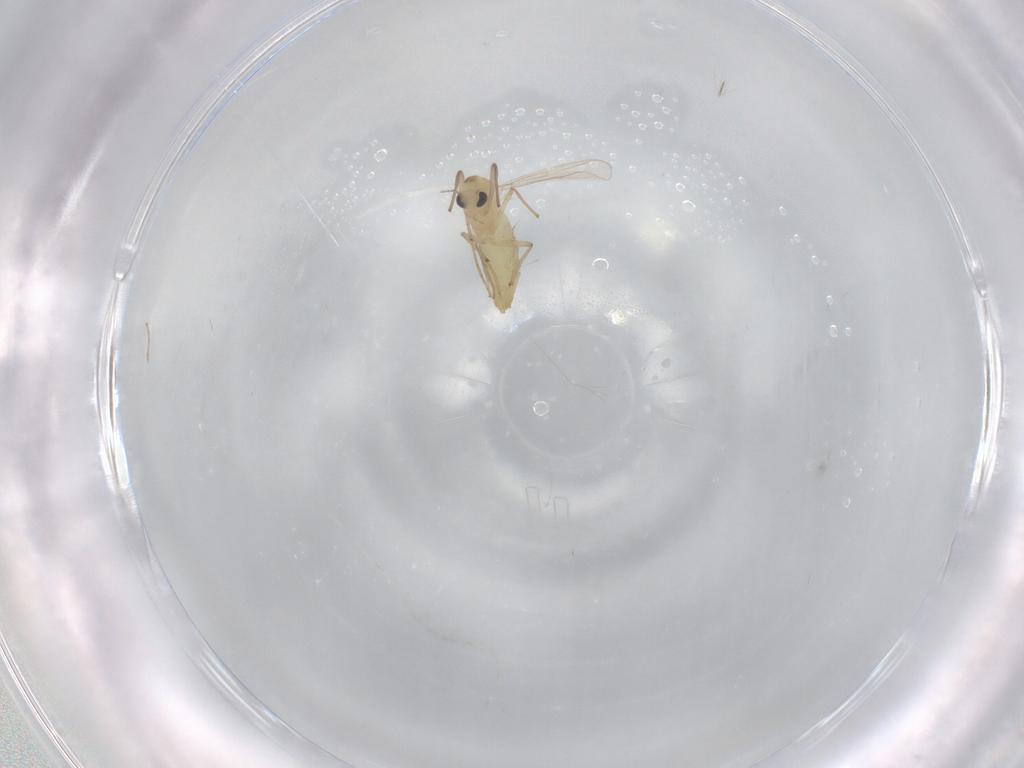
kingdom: Animalia
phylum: Arthropoda
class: Insecta
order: Diptera
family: Chironomidae
